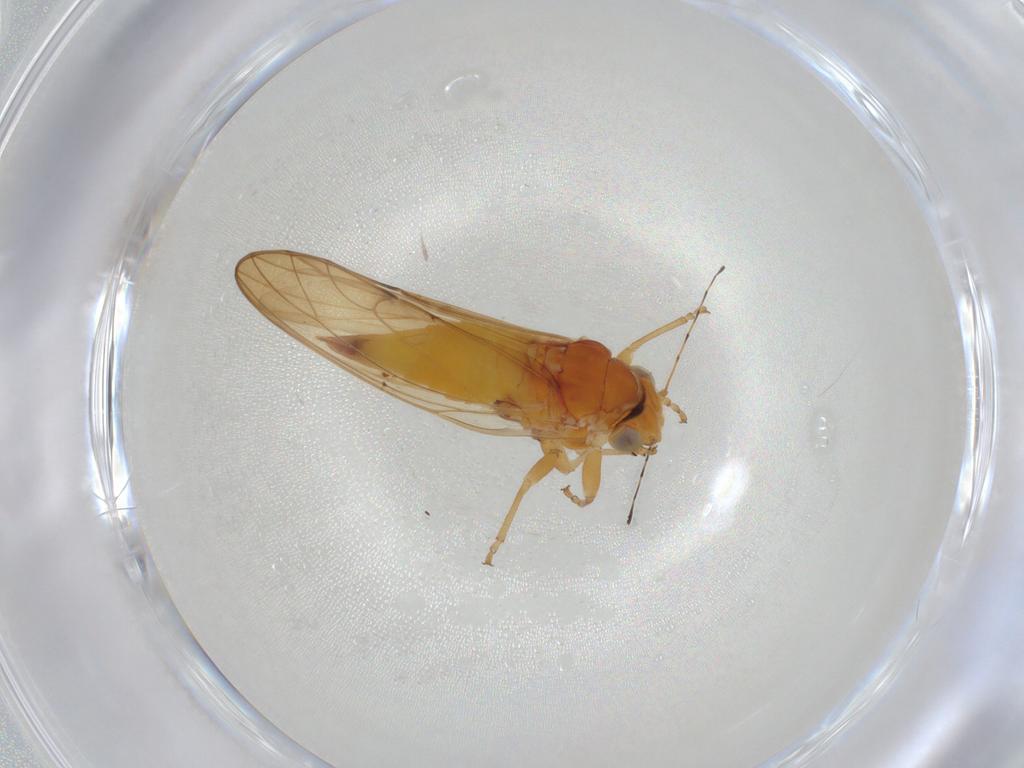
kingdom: Animalia
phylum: Arthropoda
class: Insecta
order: Hemiptera
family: Psylloidea_incertae_sedis
